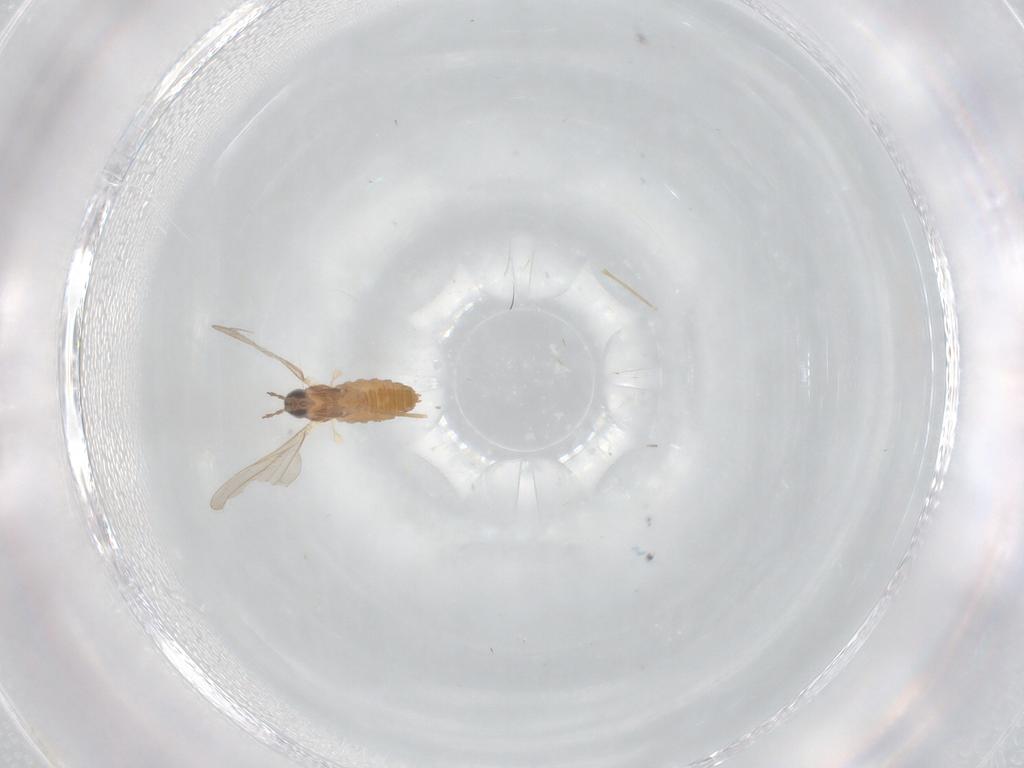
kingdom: Animalia
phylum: Arthropoda
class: Insecta
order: Diptera
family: Cecidomyiidae
